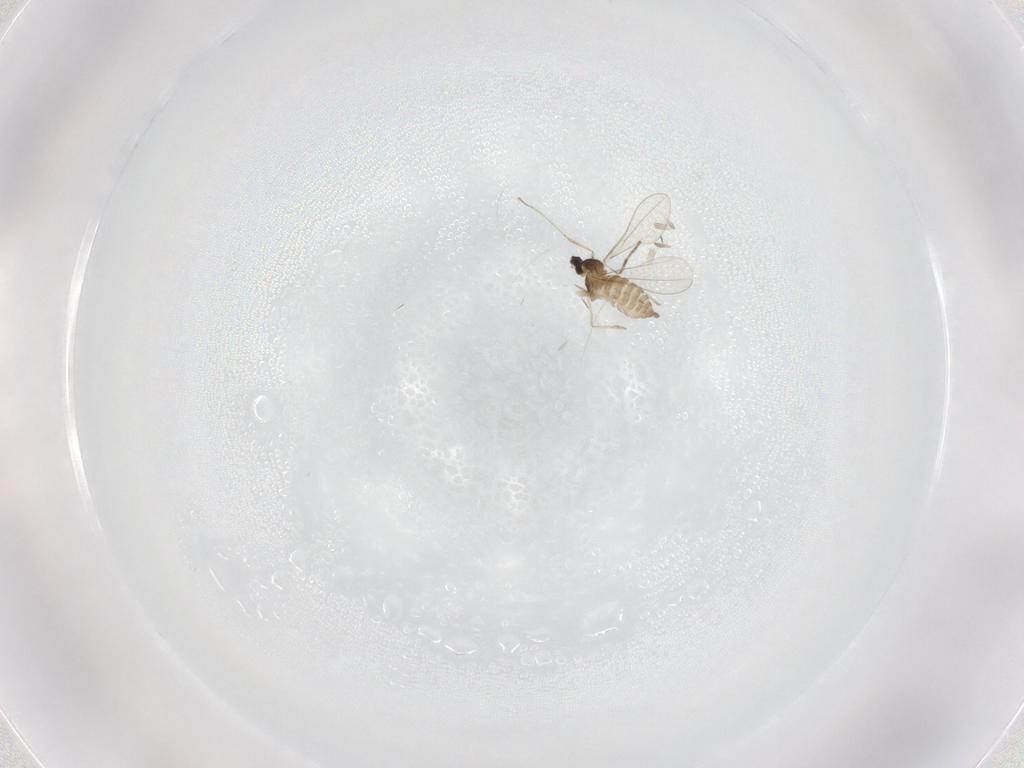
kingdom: Animalia
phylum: Arthropoda
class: Insecta
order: Diptera
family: Cecidomyiidae
